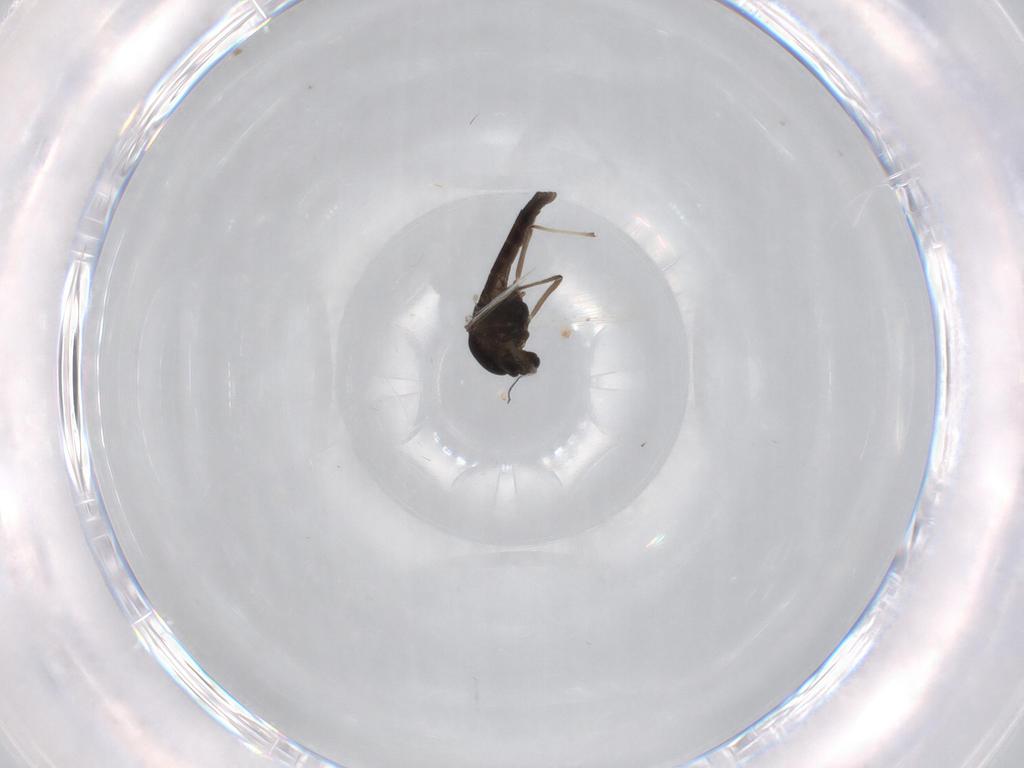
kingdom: Animalia
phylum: Arthropoda
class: Insecta
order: Diptera
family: Chironomidae
